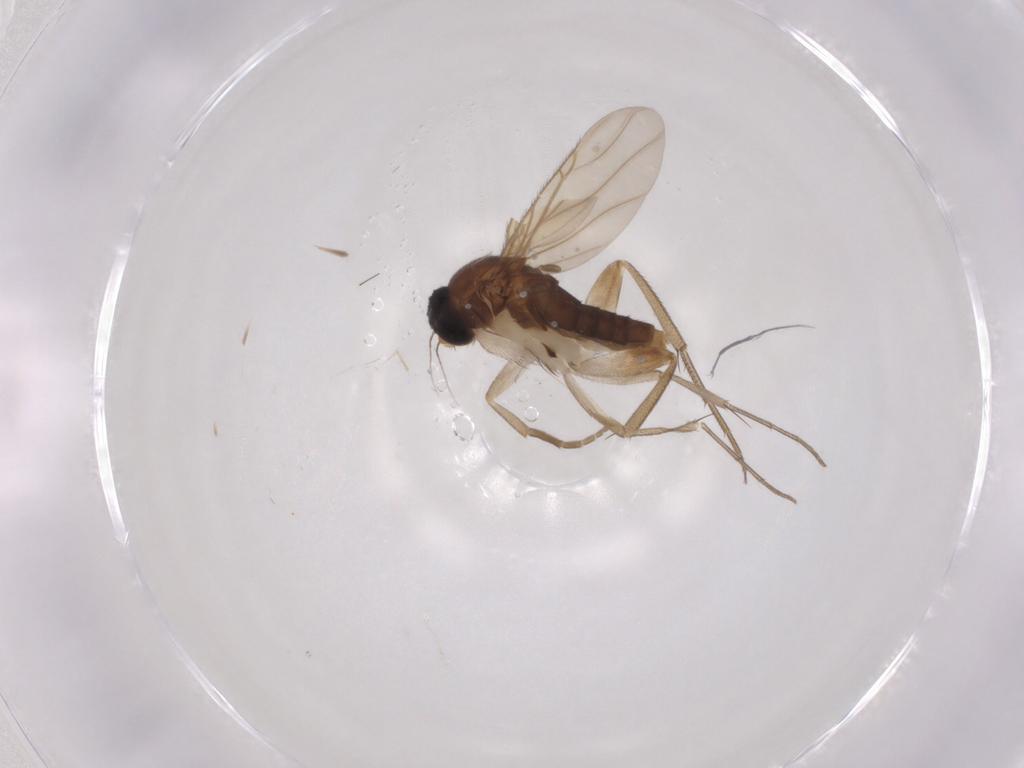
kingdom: Animalia
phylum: Arthropoda
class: Insecta
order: Diptera
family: Phoridae
